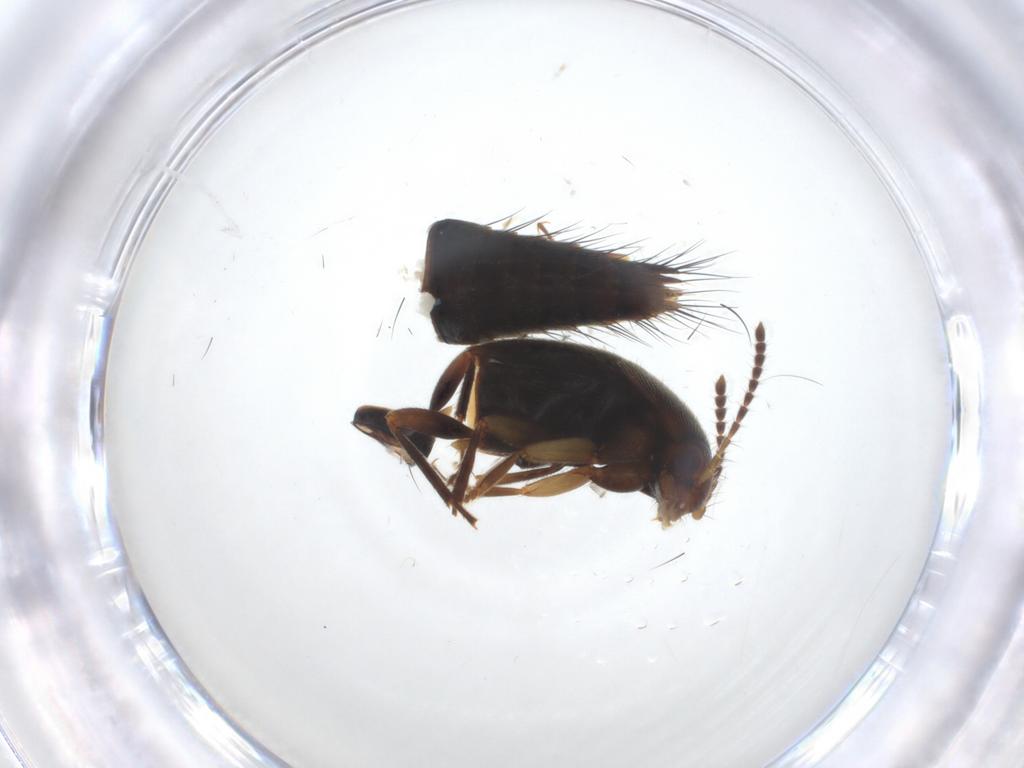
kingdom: Animalia
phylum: Arthropoda
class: Insecta
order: Coleoptera
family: Staphylinidae
